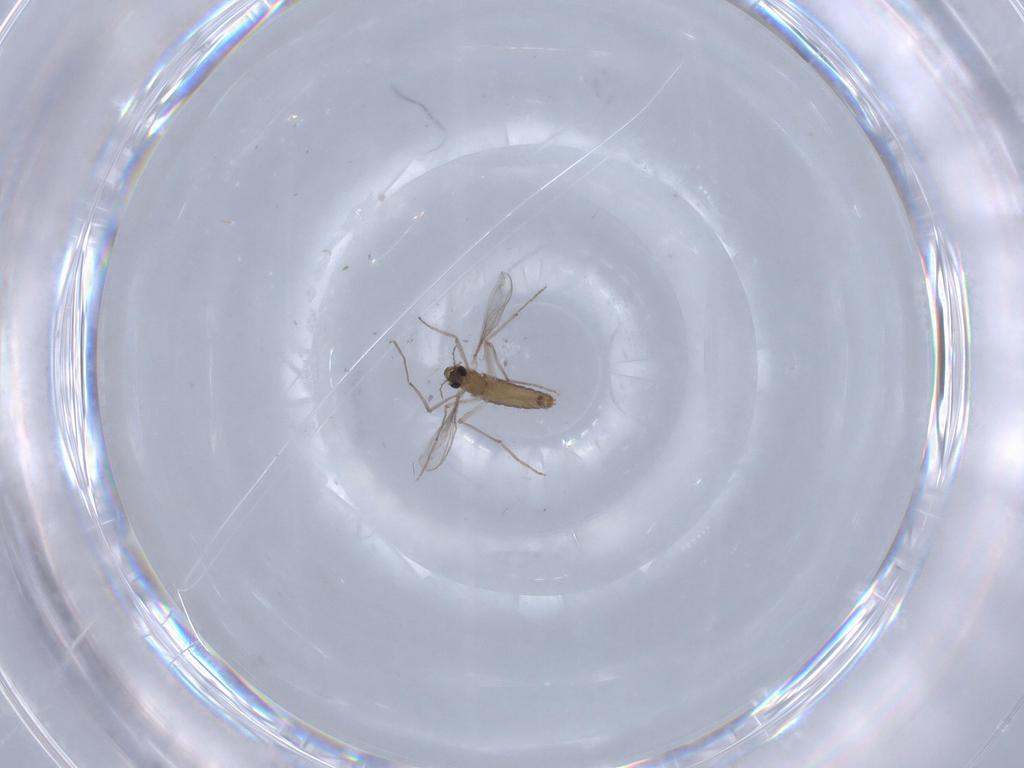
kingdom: Animalia
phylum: Arthropoda
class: Insecta
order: Diptera
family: Chironomidae
